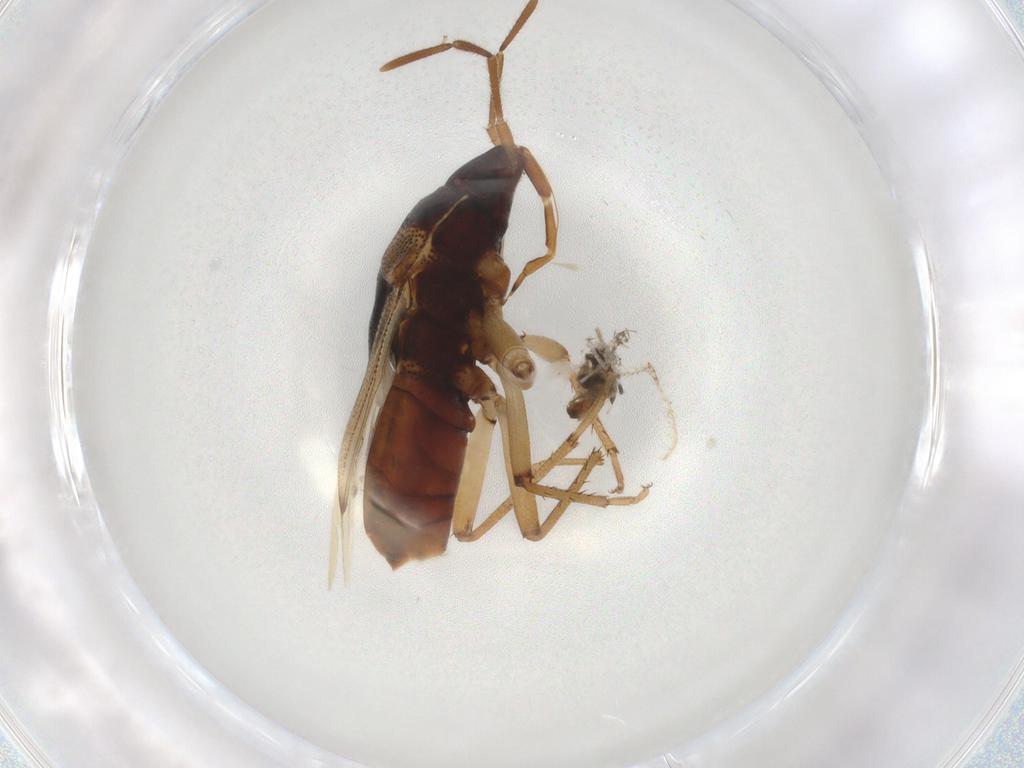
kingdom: Animalia
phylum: Arthropoda
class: Insecta
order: Hemiptera
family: Rhyparochromidae
